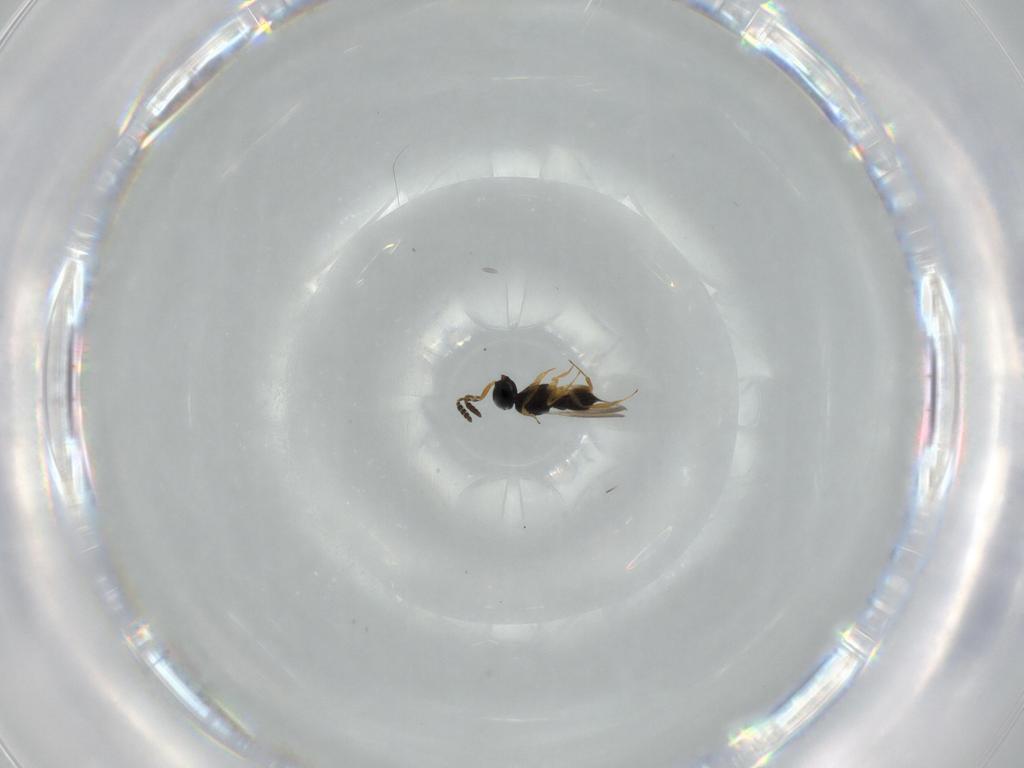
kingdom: Animalia
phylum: Arthropoda
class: Insecta
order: Hymenoptera
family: Scelionidae
